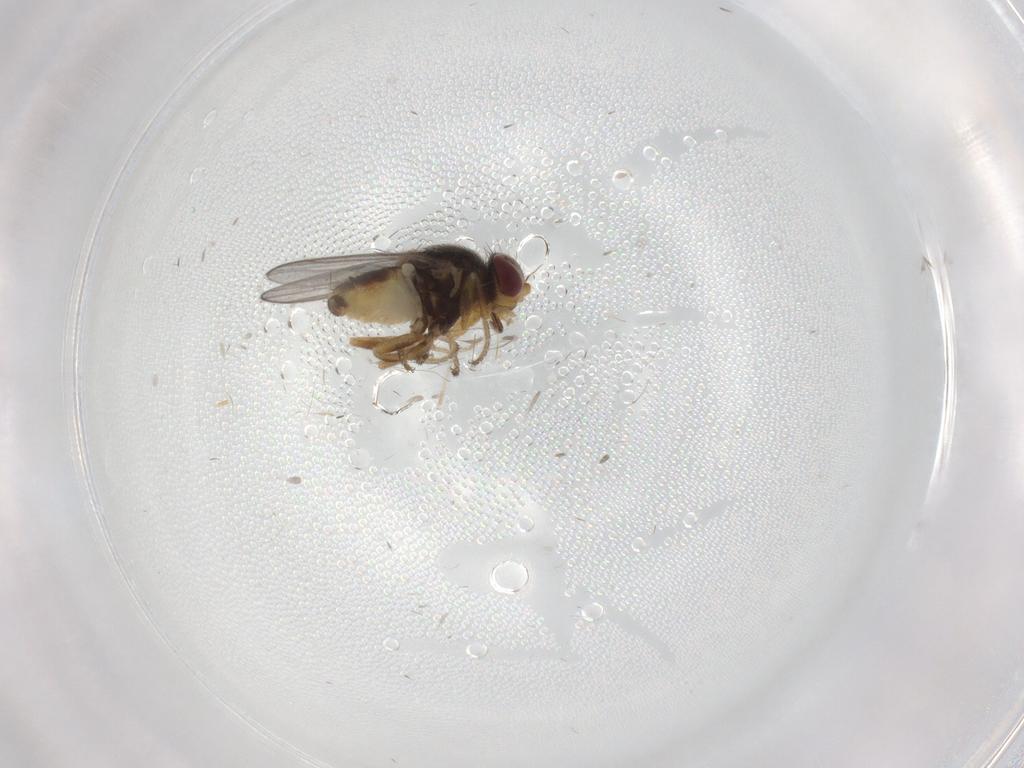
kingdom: Animalia
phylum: Arthropoda
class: Insecta
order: Diptera
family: Chloropidae
